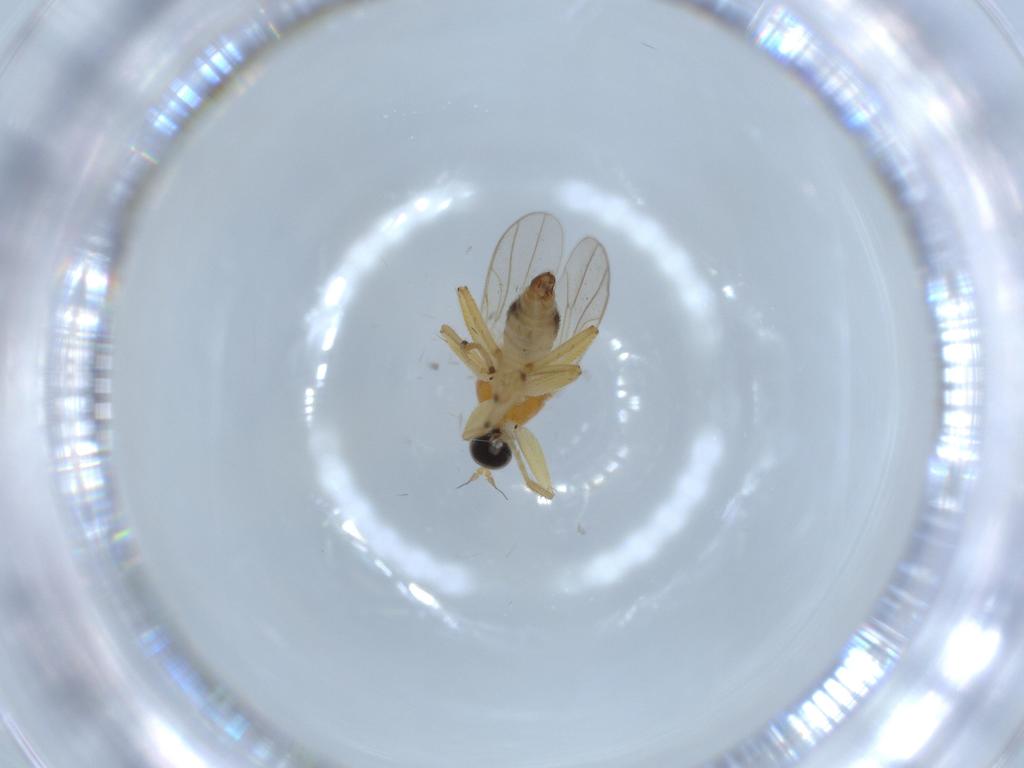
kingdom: Animalia
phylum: Arthropoda
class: Insecta
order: Diptera
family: Hybotidae
